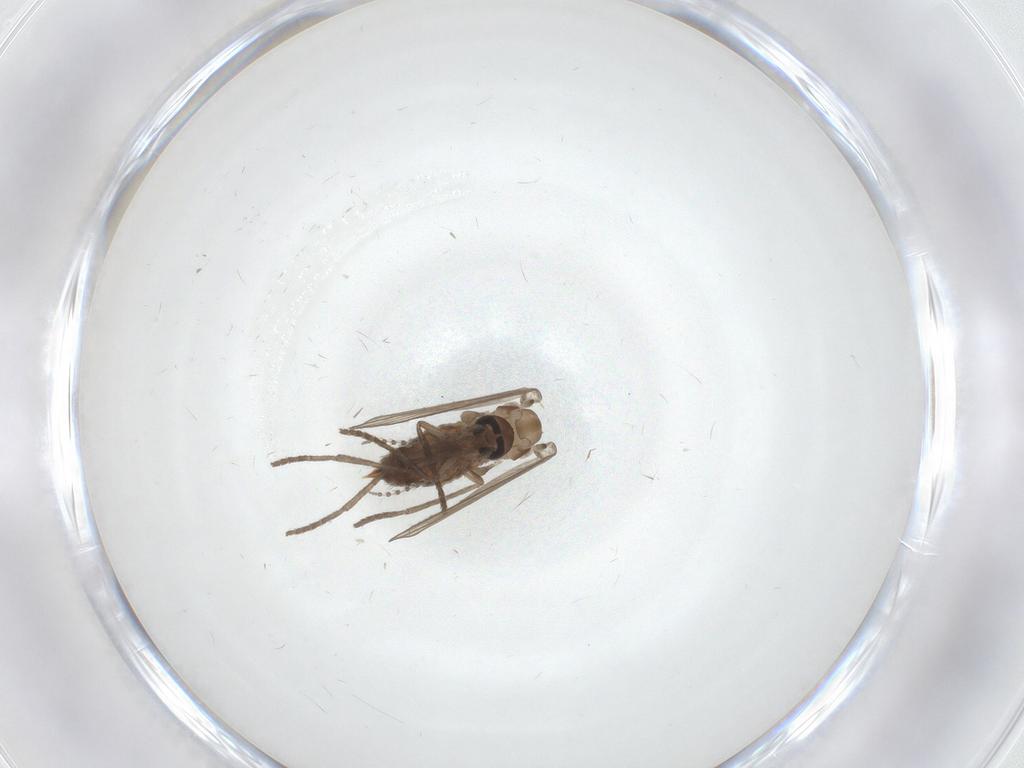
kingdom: Animalia
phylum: Arthropoda
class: Insecta
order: Diptera
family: Psychodidae
